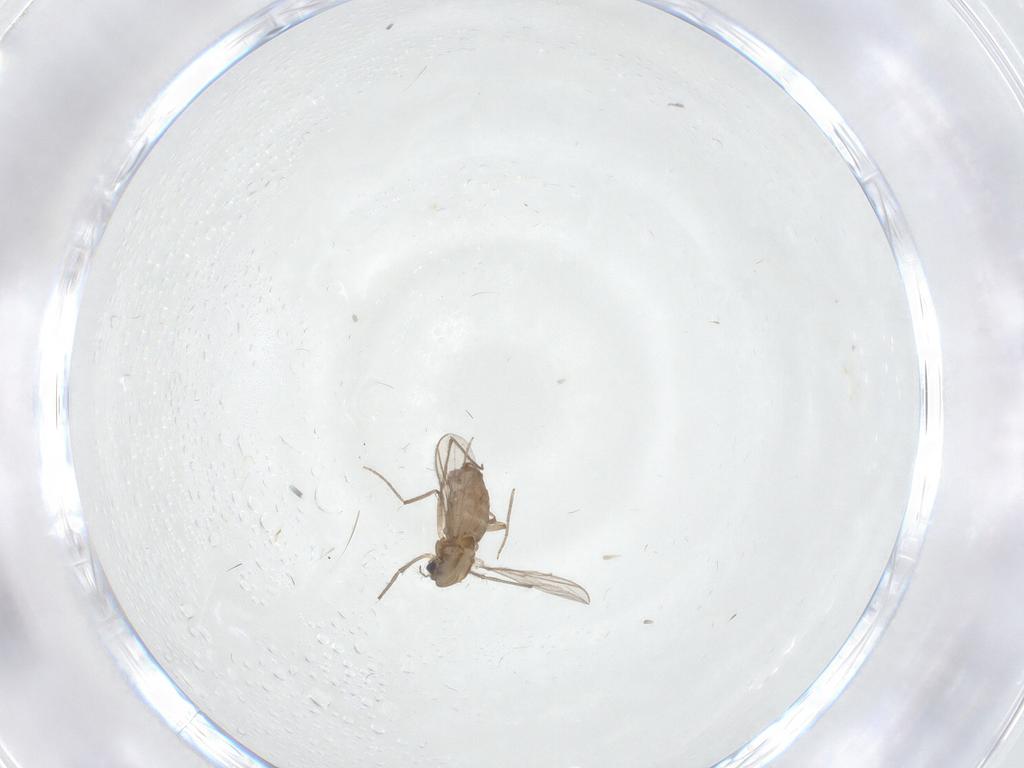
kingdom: Animalia
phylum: Arthropoda
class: Insecta
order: Diptera
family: Chironomidae
